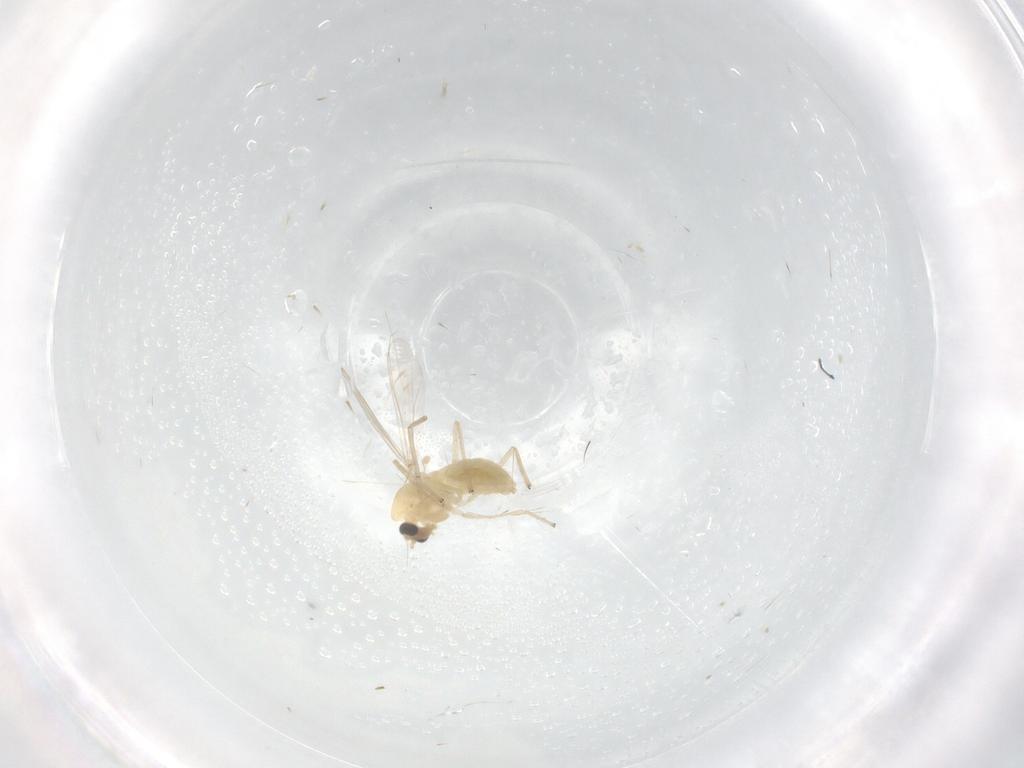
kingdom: Animalia
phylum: Arthropoda
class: Insecta
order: Diptera
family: Chironomidae
